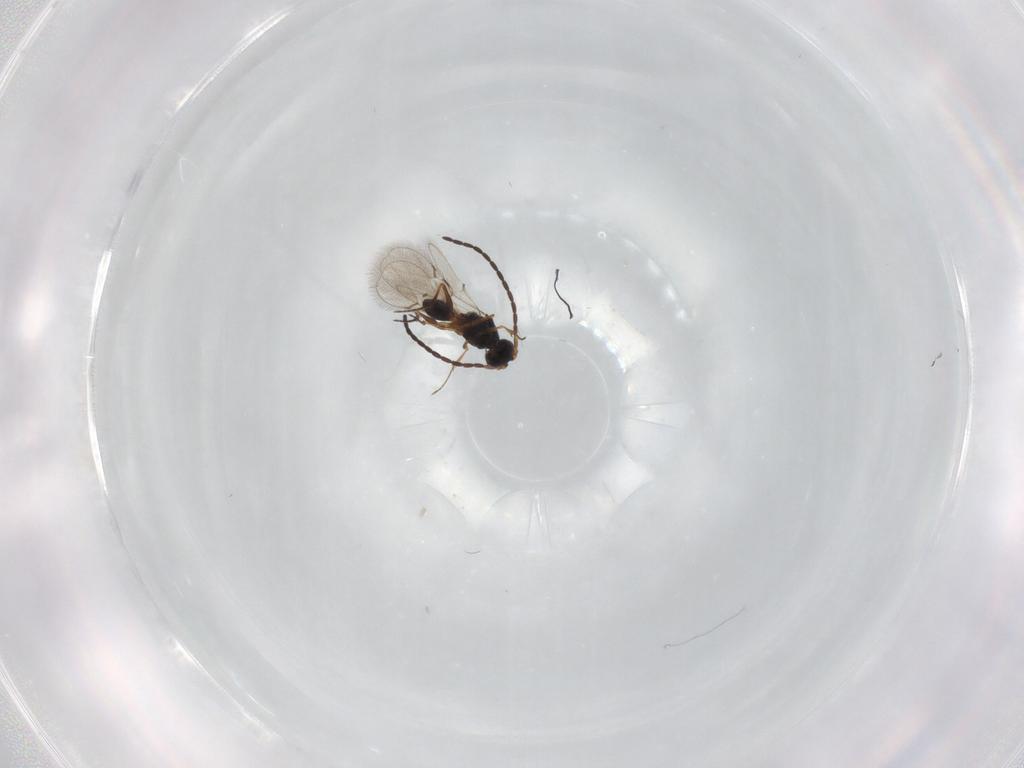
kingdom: Animalia
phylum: Arthropoda
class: Insecta
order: Hymenoptera
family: Figitidae
